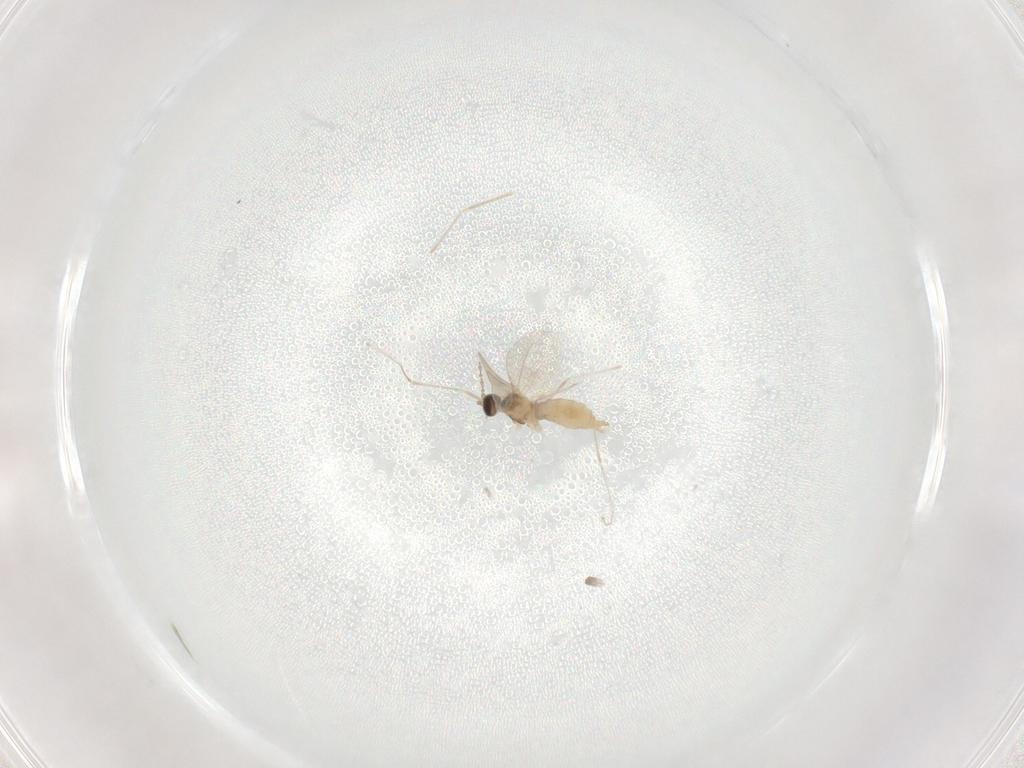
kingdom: Animalia
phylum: Arthropoda
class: Insecta
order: Diptera
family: Cecidomyiidae
